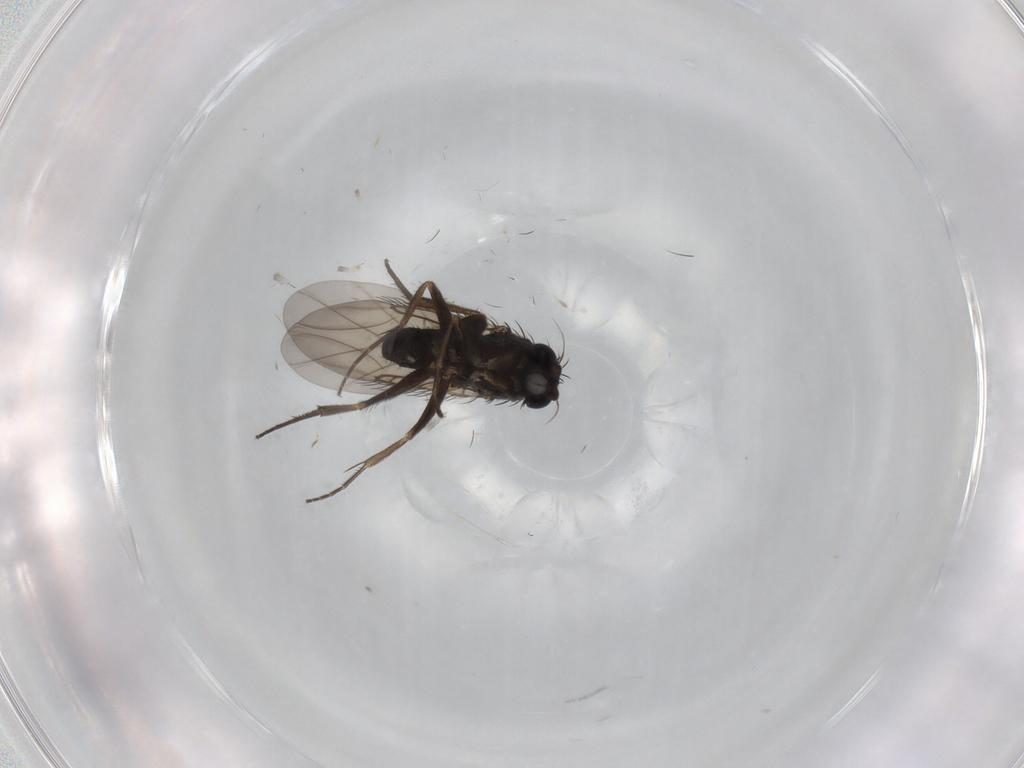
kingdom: Animalia
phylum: Arthropoda
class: Insecta
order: Diptera
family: Phoridae
